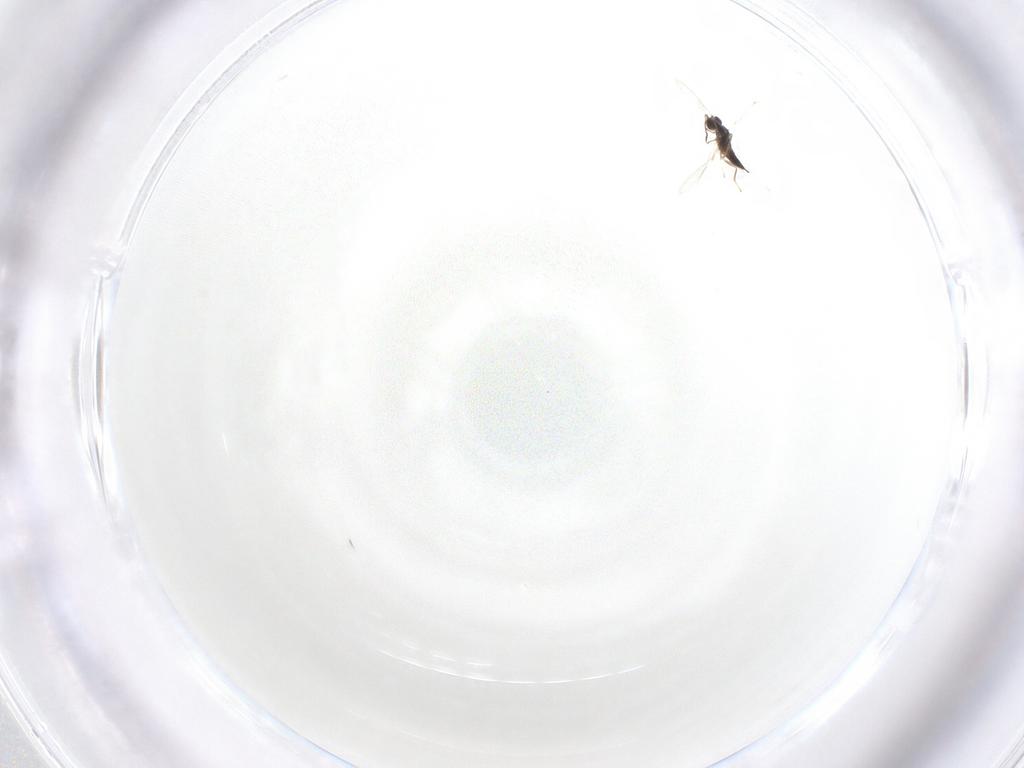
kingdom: Animalia
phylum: Arthropoda
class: Insecta
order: Hymenoptera
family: Mymaridae
